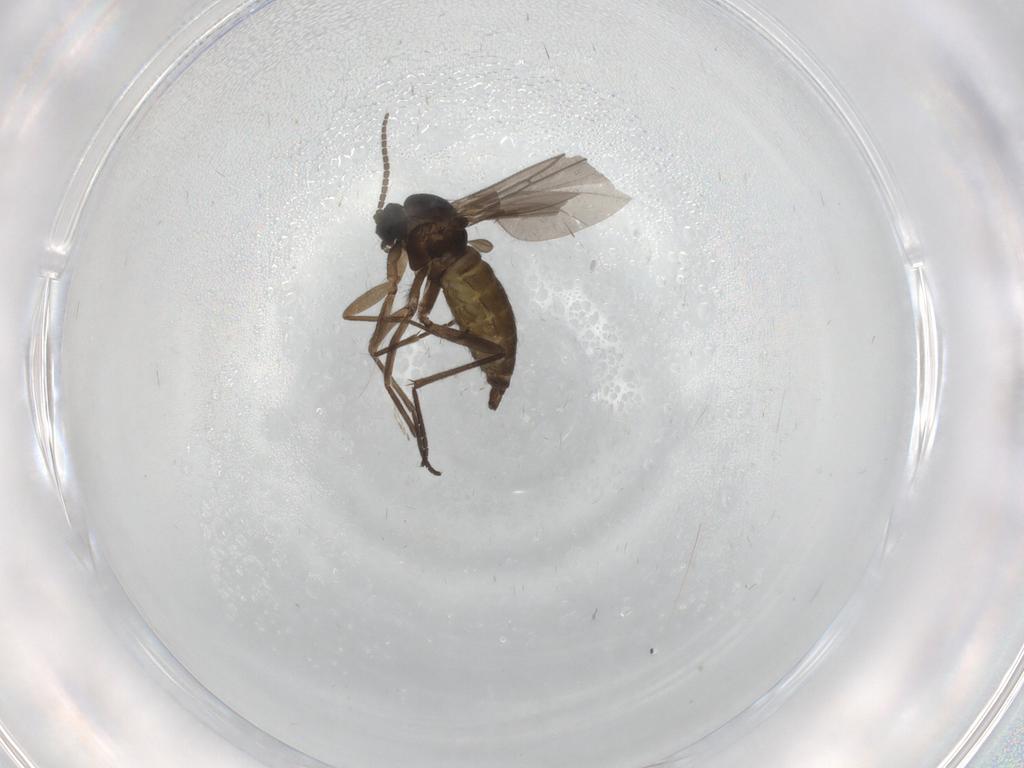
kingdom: Animalia
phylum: Arthropoda
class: Insecta
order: Diptera
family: Sciaridae
